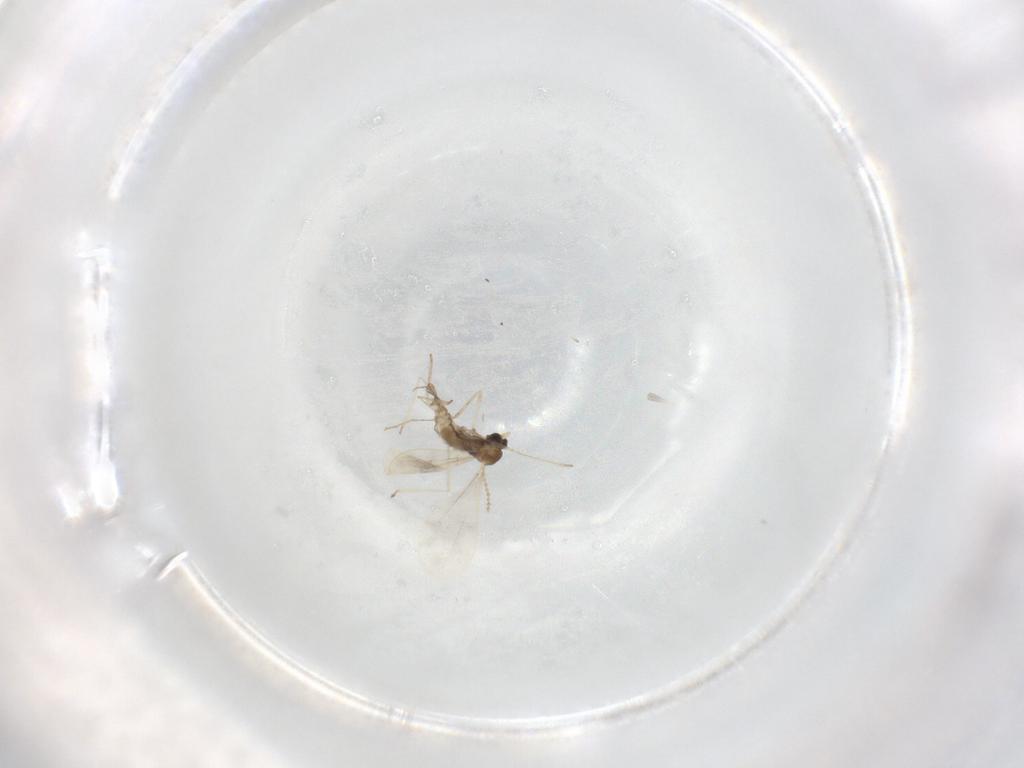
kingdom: Animalia
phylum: Arthropoda
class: Insecta
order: Diptera
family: Cecidomyiidae
